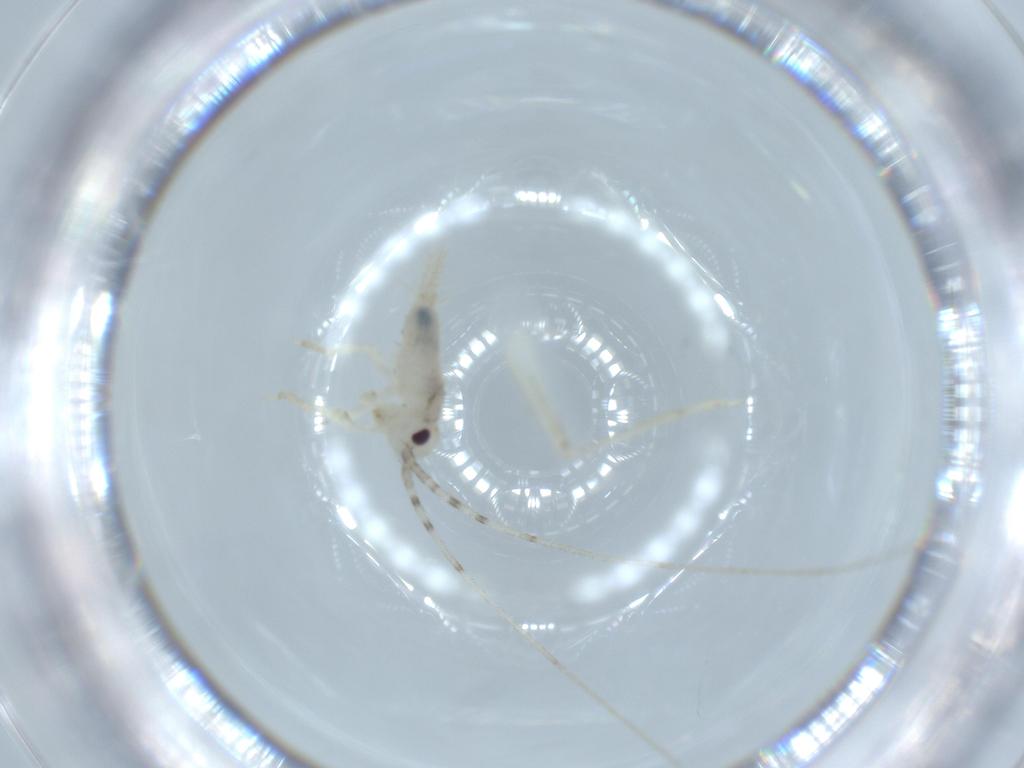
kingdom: Animalia
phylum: Arthropoda
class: Insecta
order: Orthoptera
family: Trigonidiidae
